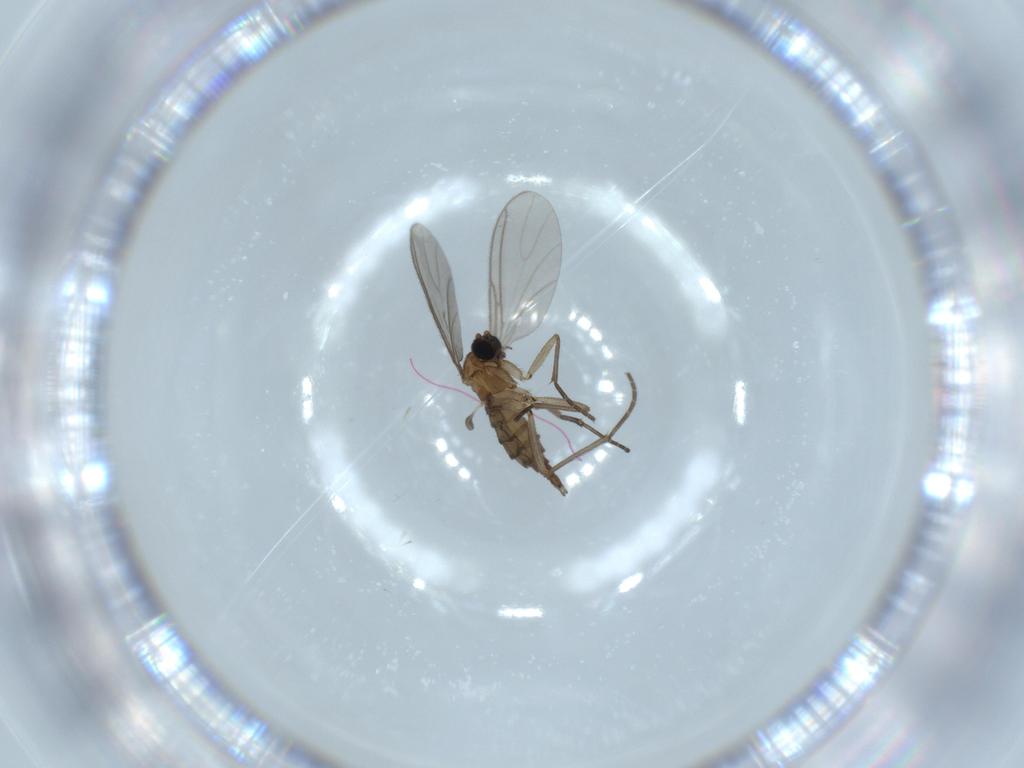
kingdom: Animalia
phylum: Arthropoda
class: Insecta
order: Diptera
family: Sciaridae
